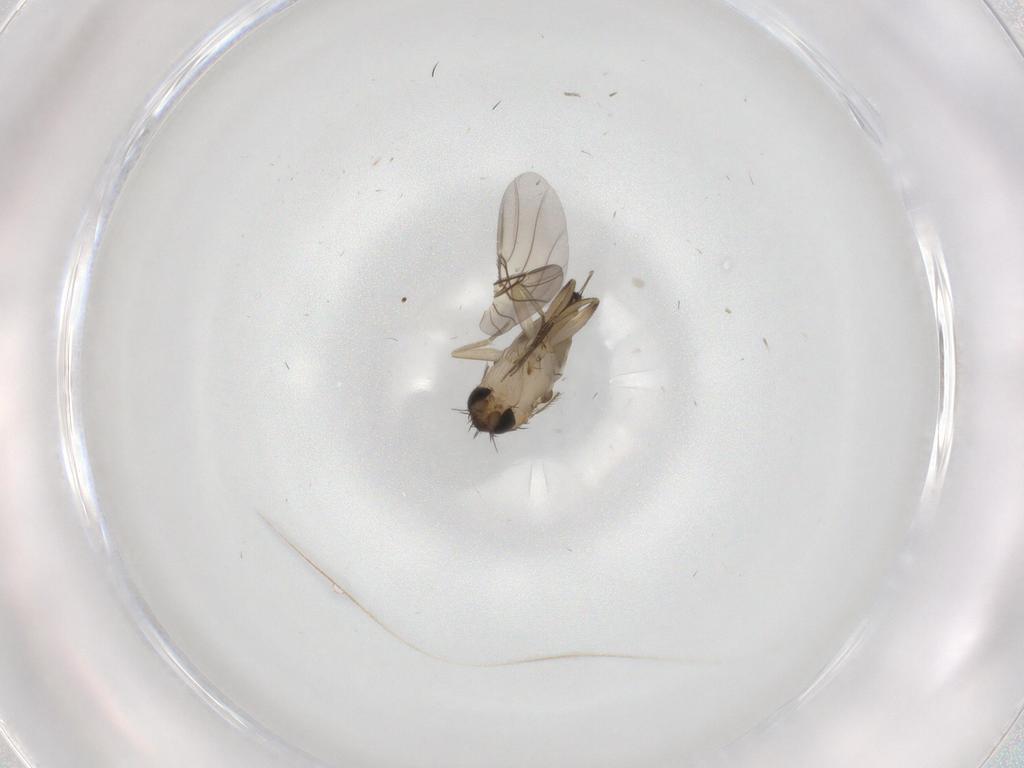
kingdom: Animalia
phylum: Arthropoda
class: Insecta
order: Diptera
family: Phoridae
